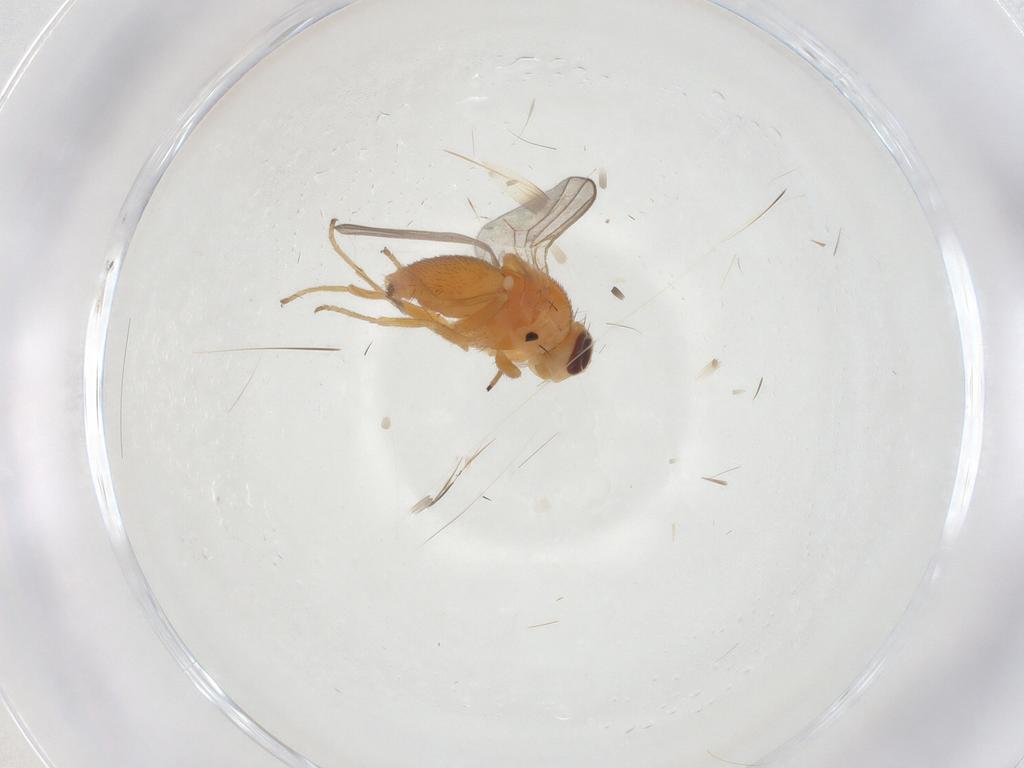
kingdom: Animalia
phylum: Arthropoda
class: Insecta
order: Diptera
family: Chloropidae
